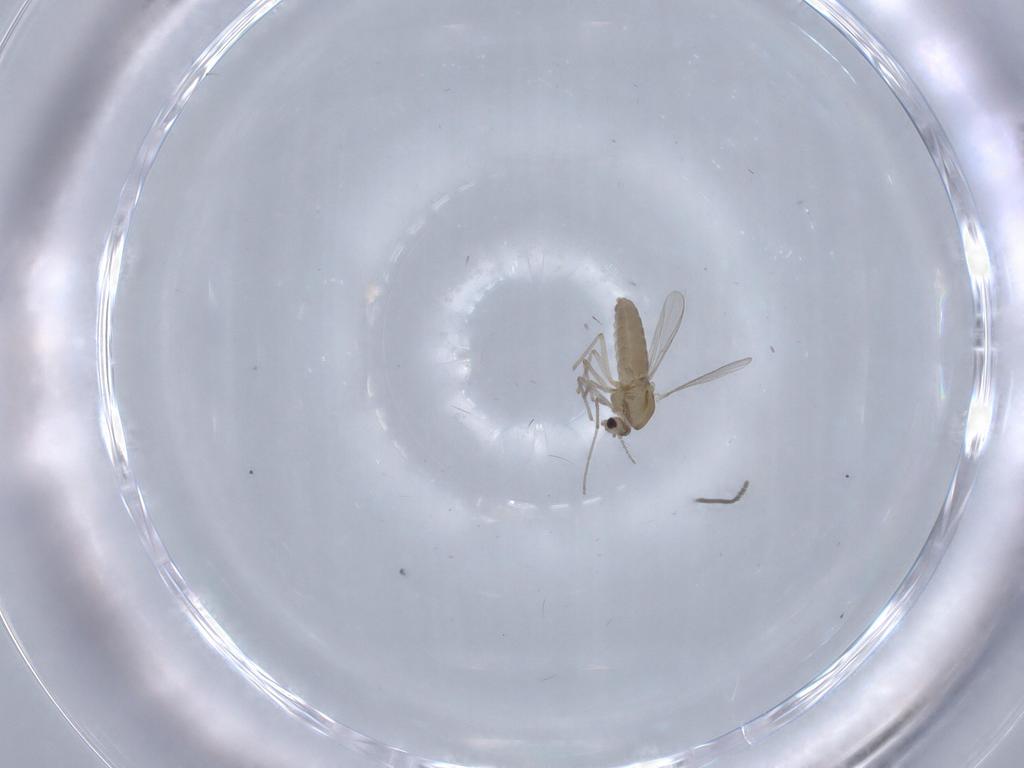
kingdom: Animalia
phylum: Arthropoda
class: Insecta
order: Diptera
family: Chironomidae
